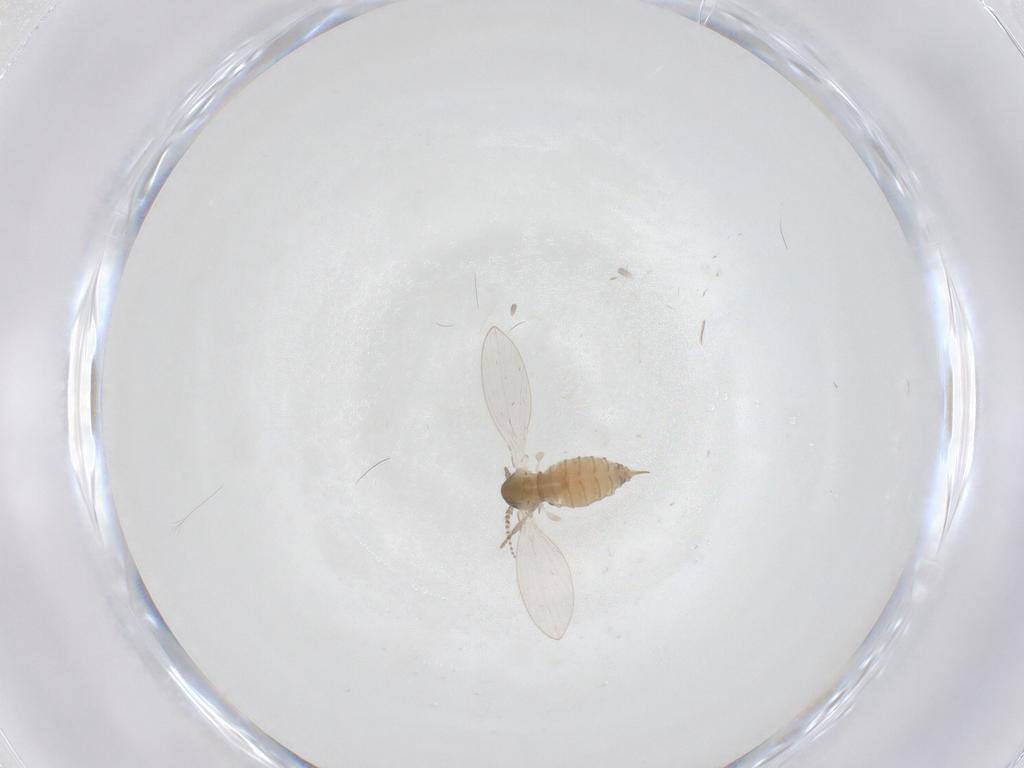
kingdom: Animalia
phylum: Arthropoda
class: Insecta
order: Diptera
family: Psychodidae
